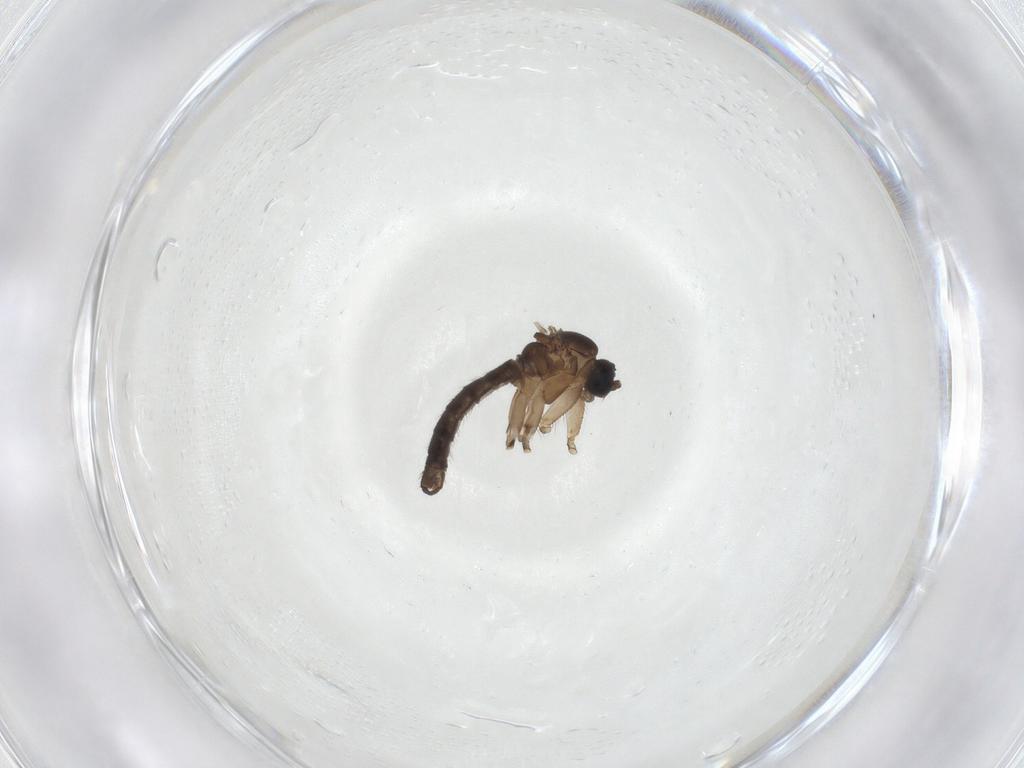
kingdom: Animalia
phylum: Arthropoda
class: Insecta
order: Diptera
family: Sciaridae
